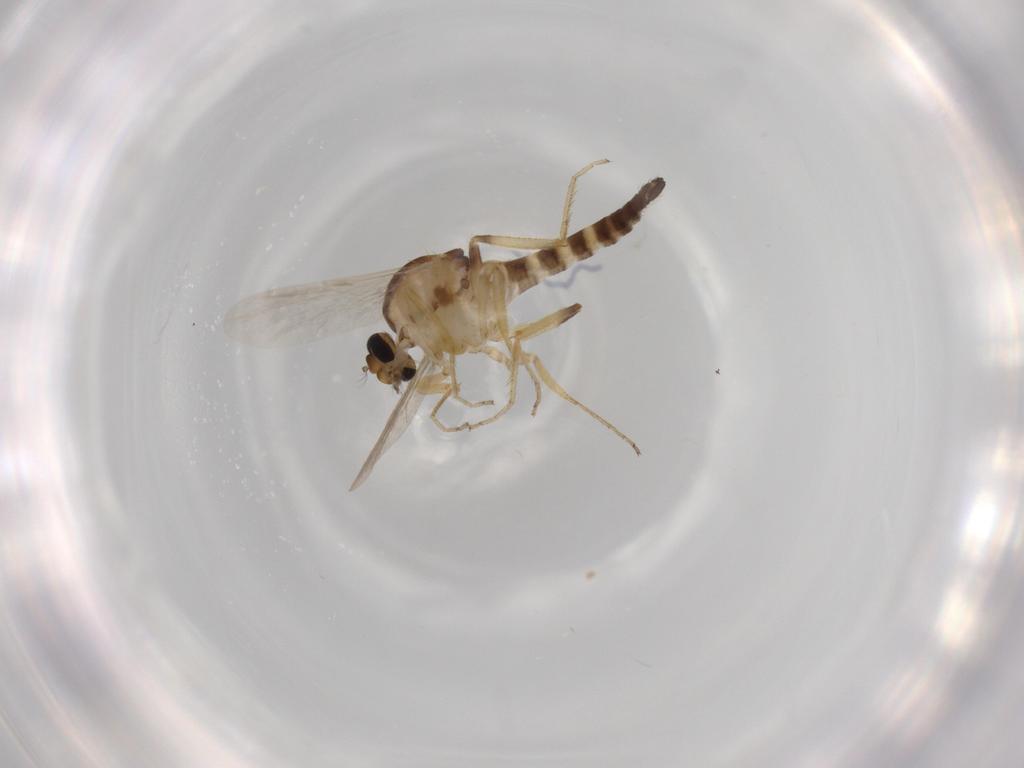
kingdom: Animalia
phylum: Arthropoda
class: Insecta
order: Diptera
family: Ceratopogonidae
